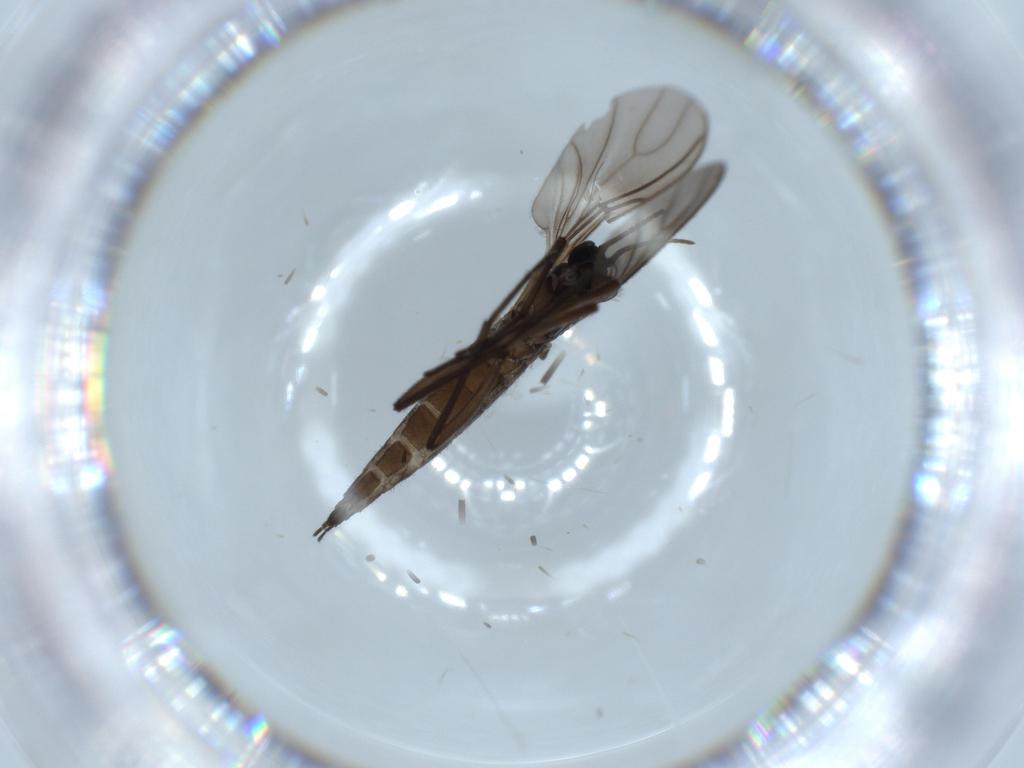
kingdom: Animalia
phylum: Arthropoda
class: Insecta
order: Diptera
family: Sciaridae
